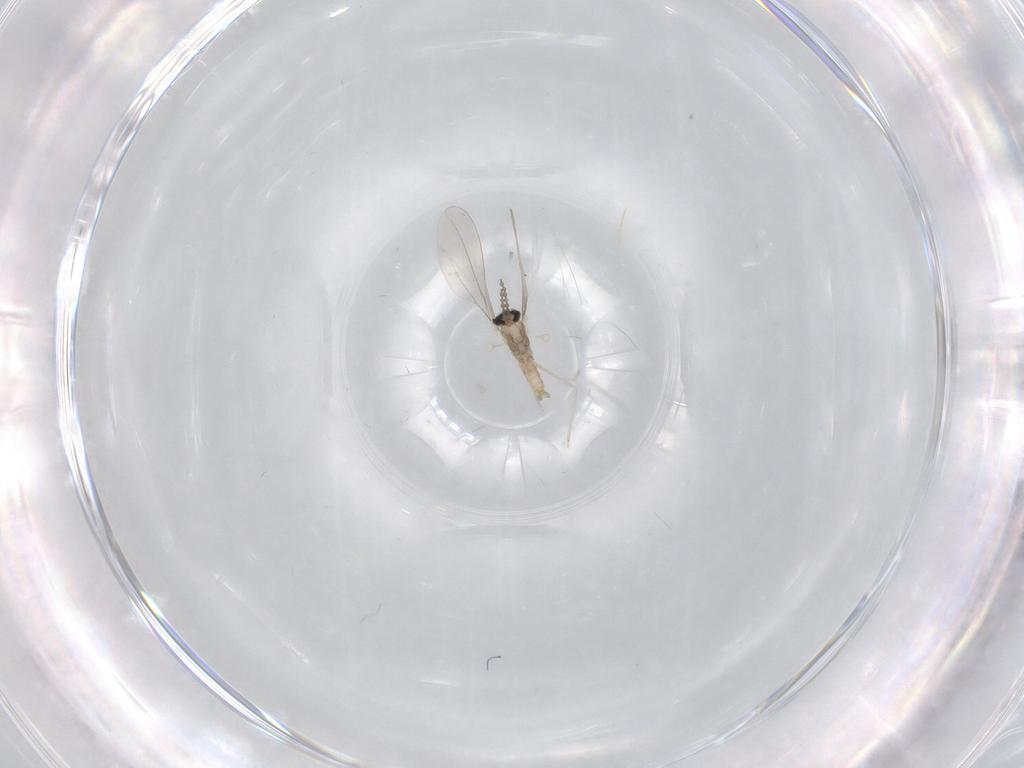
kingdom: Animalia
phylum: Arthropoda
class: Insecta
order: Diptera
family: Cecidomyiidae
